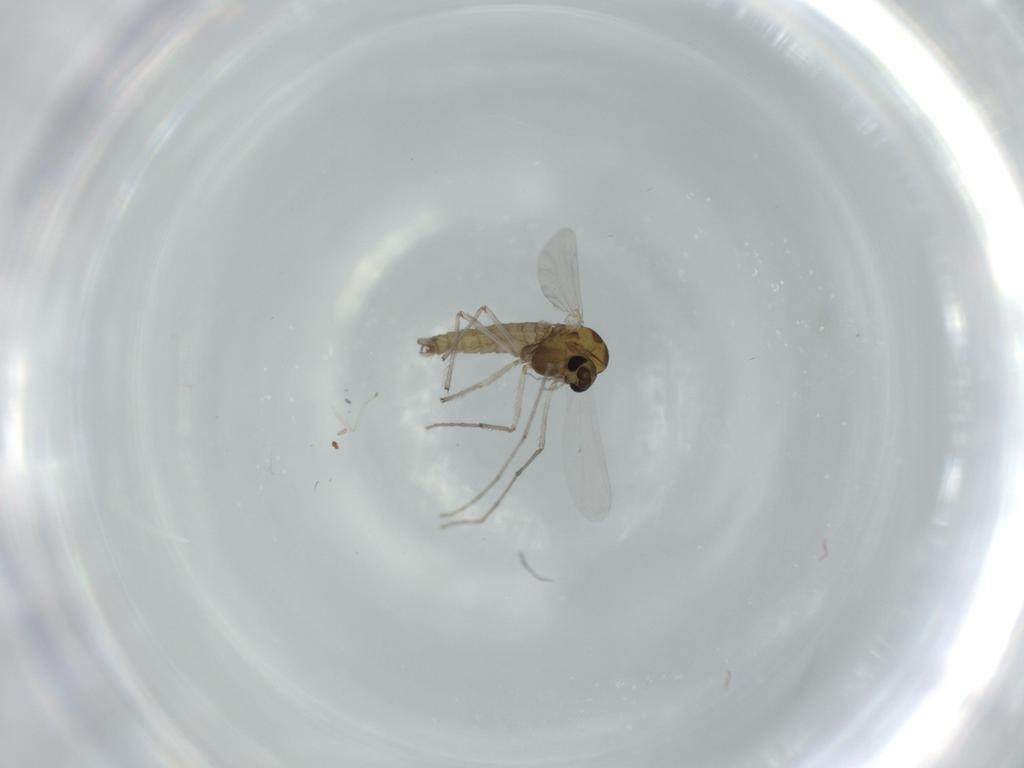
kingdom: Animalia
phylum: Arthropoda
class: Insecta
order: Diptera
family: Chironomidae
